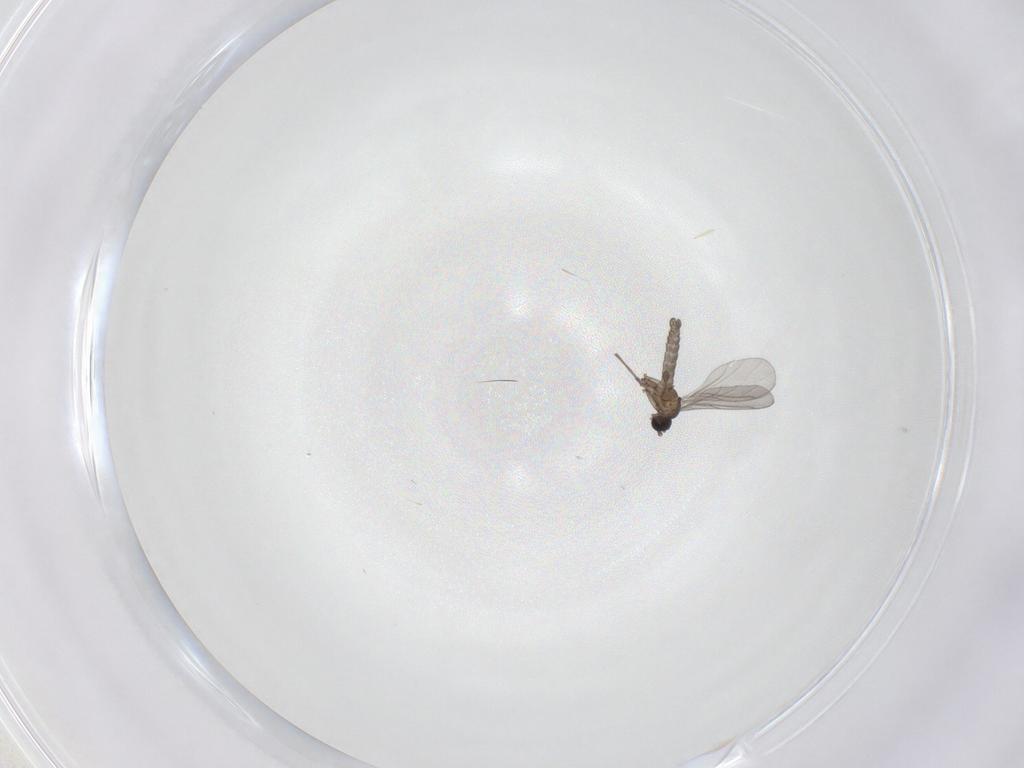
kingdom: Animalia
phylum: Arthropoda
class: Insecta
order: Diptera
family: Sciaridae
